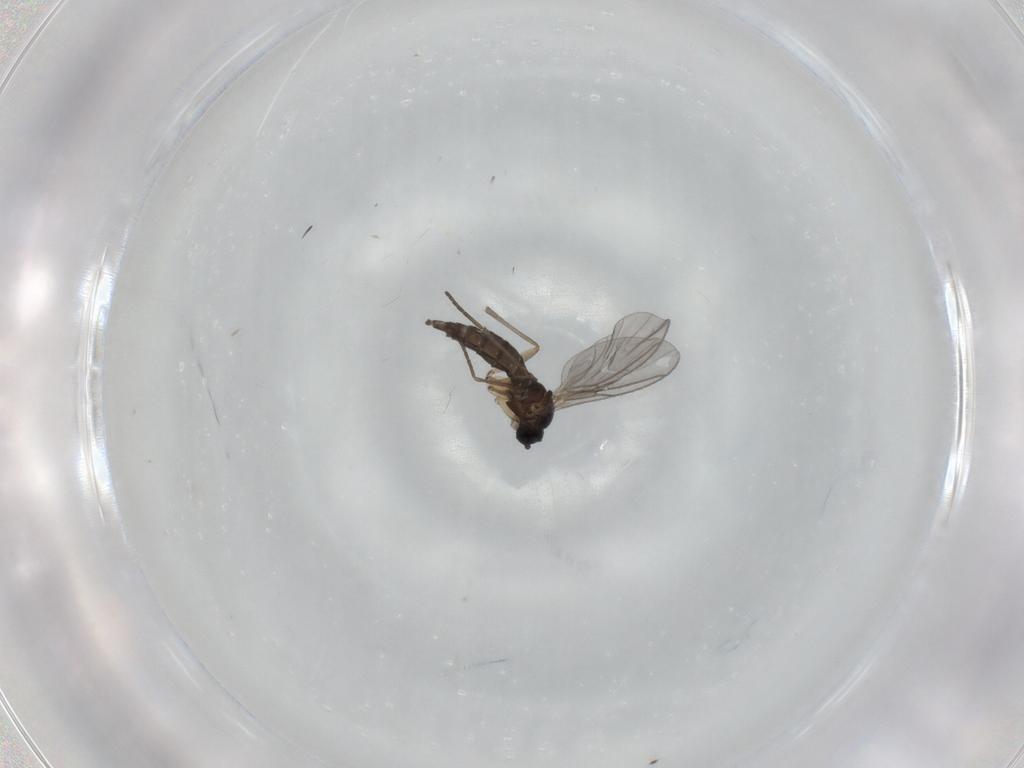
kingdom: Animalia
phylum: Arthropoda
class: Insecta
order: Diptera
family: Sciaridae
